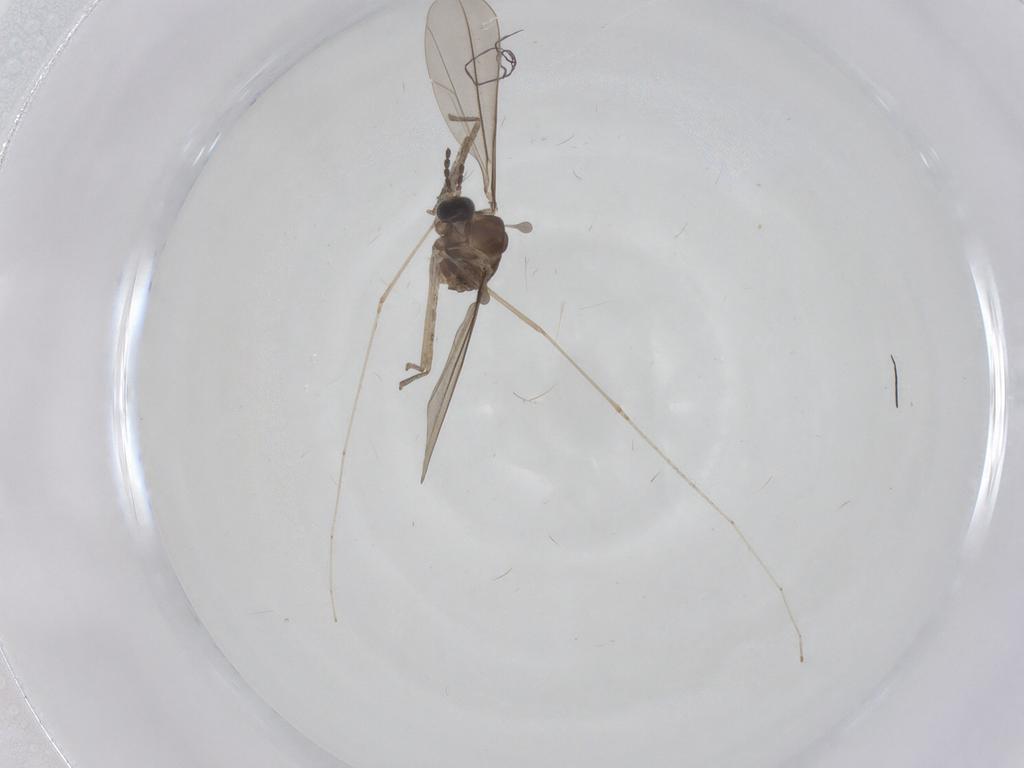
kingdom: Animalia
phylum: Arthropoda
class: Insecta
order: Diptera
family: Cecidomyiidae
